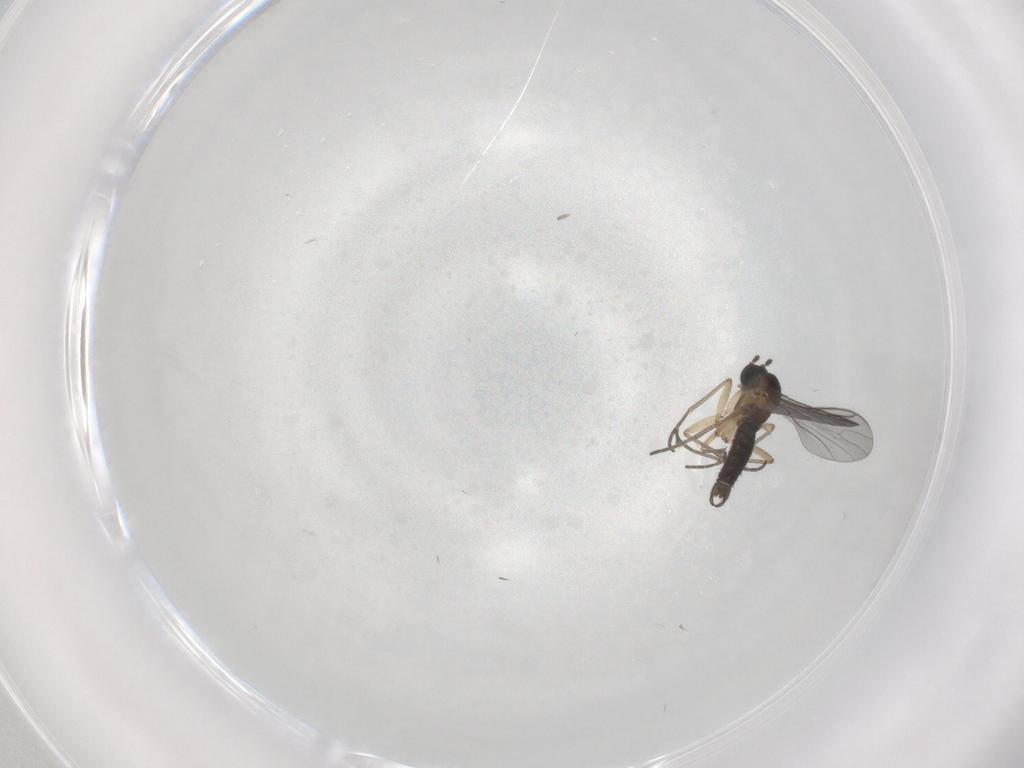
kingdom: Animalia
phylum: Arthropoda
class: Insecta
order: Diptera
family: Sciaridae
